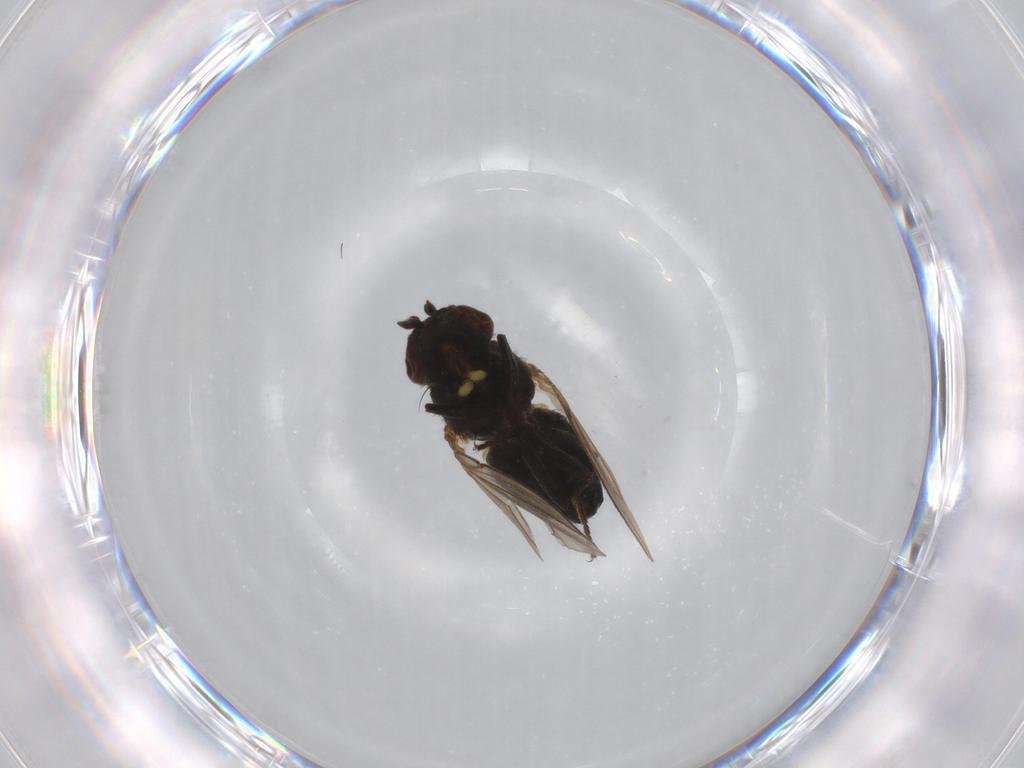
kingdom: Animalia
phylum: Arthropoda
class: Insecta
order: Diptera
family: Ephydridae
